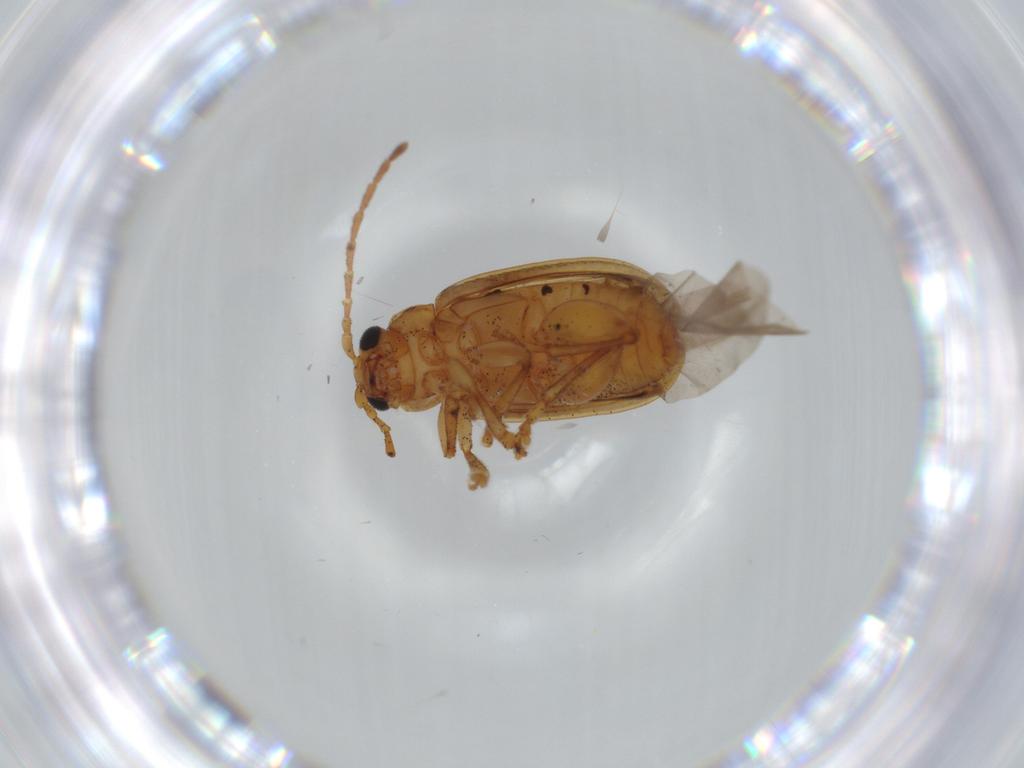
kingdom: Animalia
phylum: Arthropoda
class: Insecta
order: Coleoptera
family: Chrysomelidae
